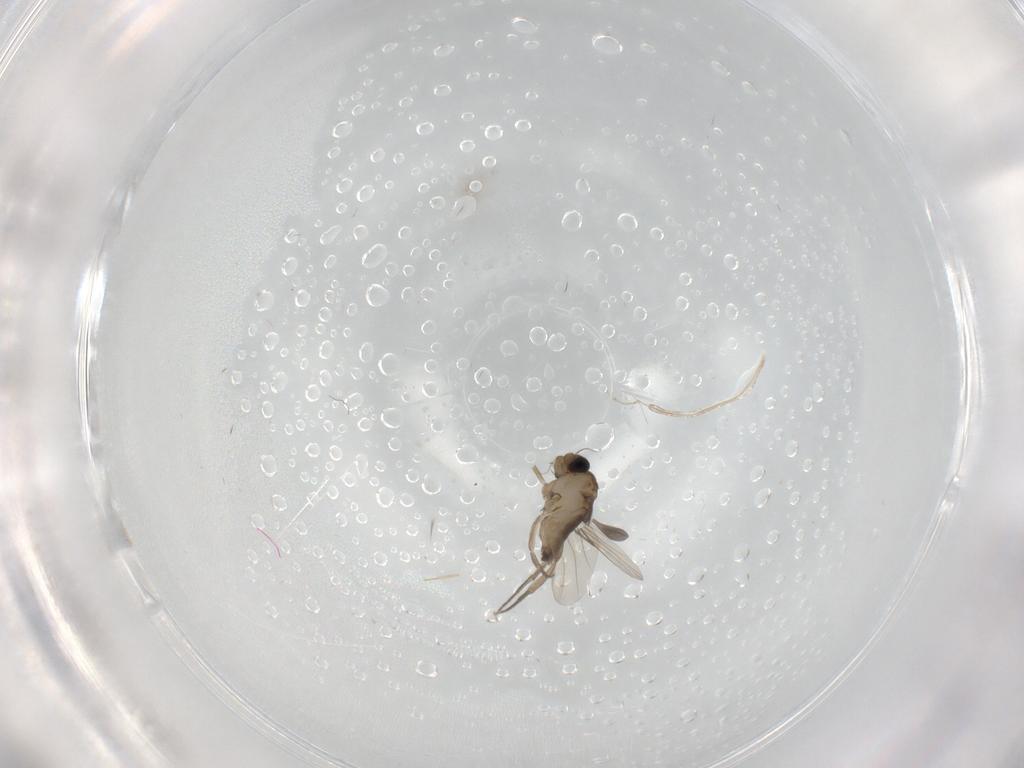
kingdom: Animalia
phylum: Arthropoda
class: Insecta
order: Diptera
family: Phoridae
